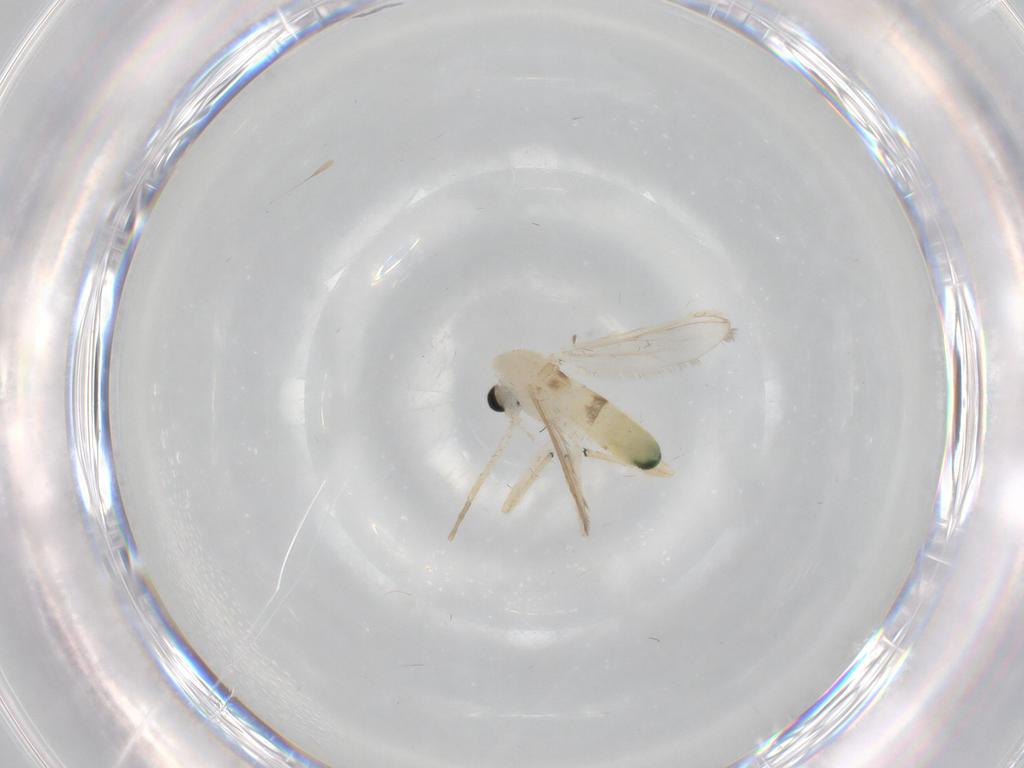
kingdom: Animalia
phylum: Arthropoda
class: Insecta
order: Diptera
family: Chironomidae
